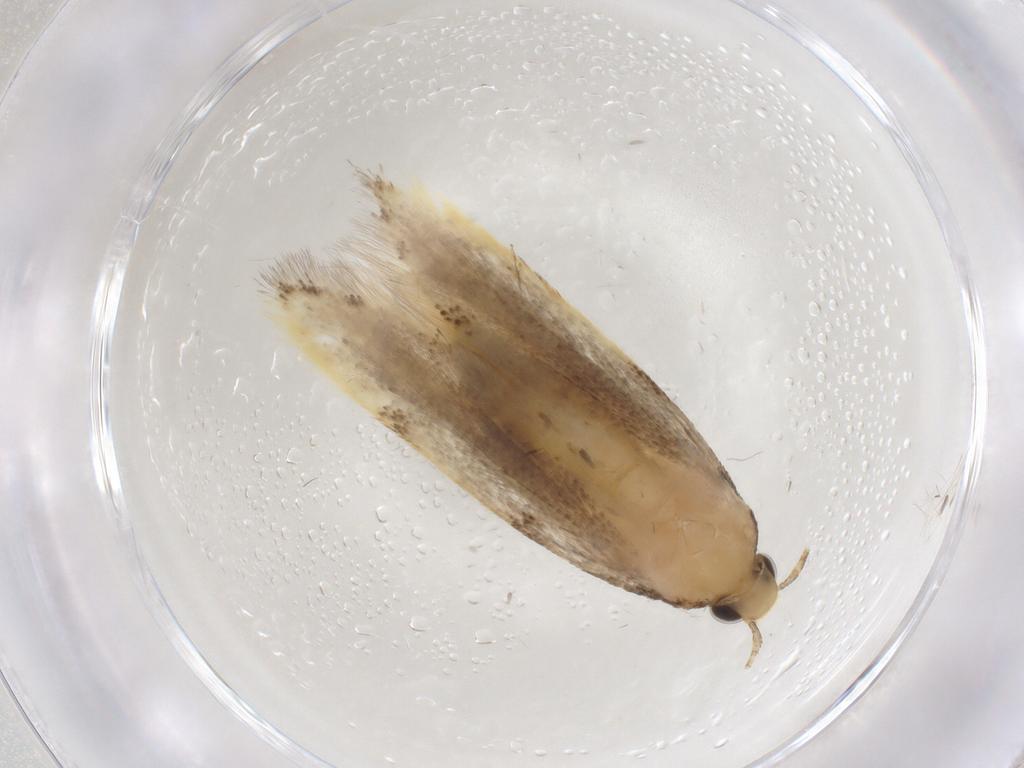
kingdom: Animalia
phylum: Arthropoda
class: Insecta
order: Lepidoptera
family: Autostichidae
